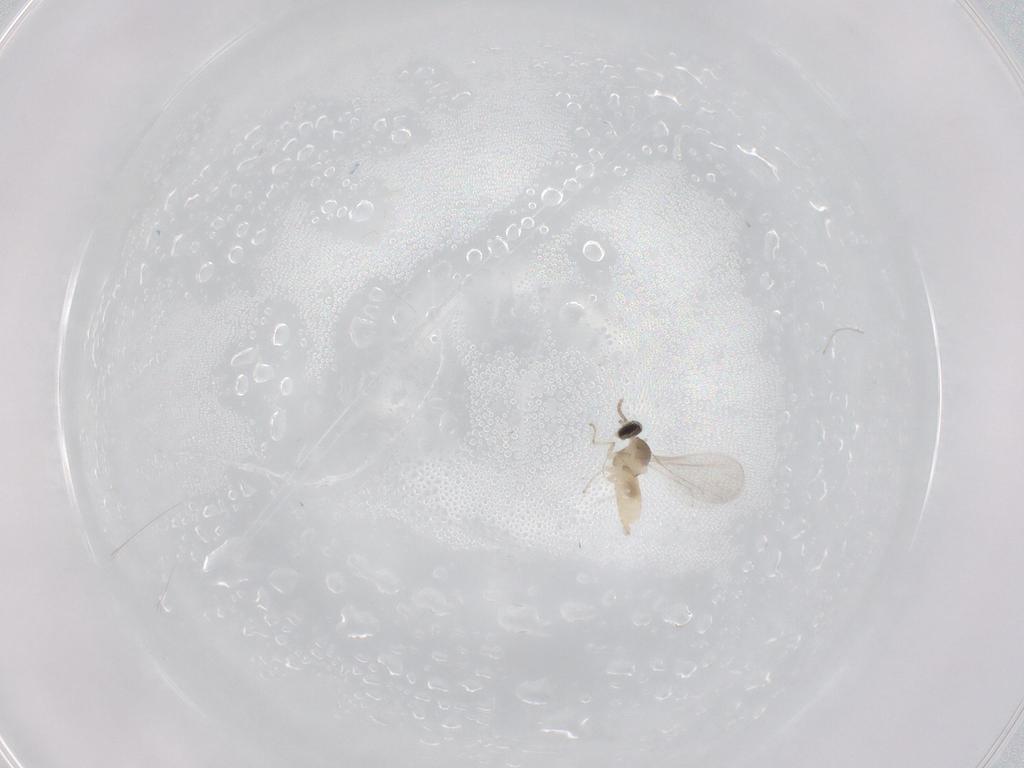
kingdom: Animalia
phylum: Arthropoda
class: Insecta
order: Diptera
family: Cecidomyiidae
